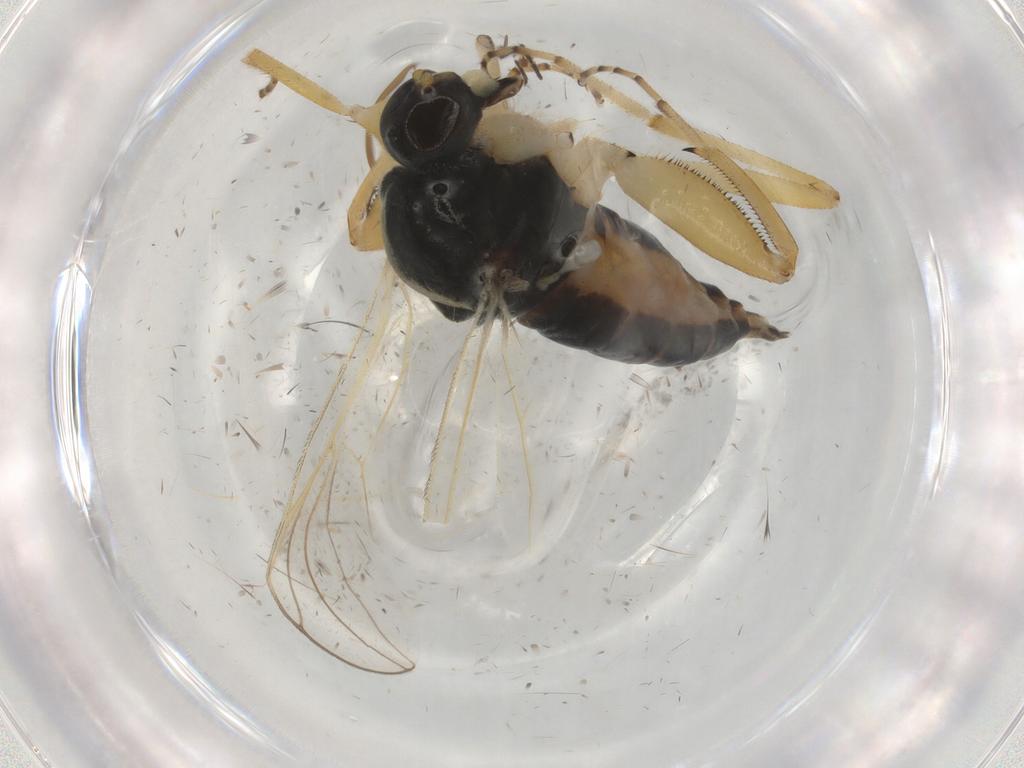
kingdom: Animalia
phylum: Arthropoda
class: Insecta
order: Diptera
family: Hybotidae
